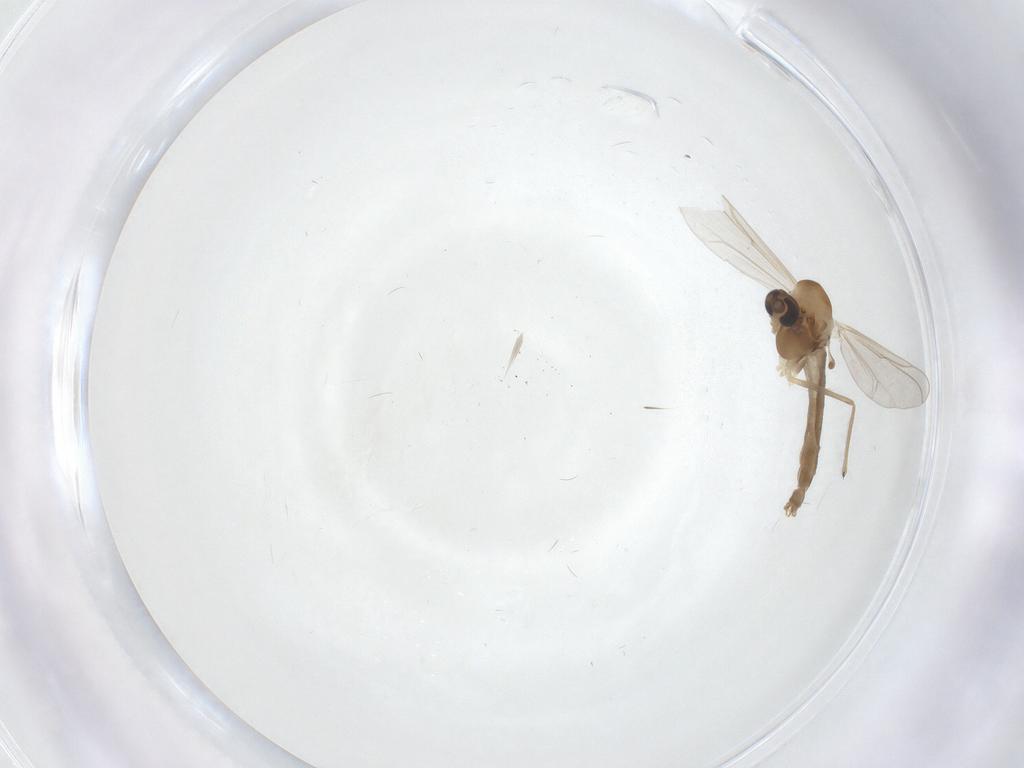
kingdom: Animalia
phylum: Arthropoda
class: Insecta
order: Diptera
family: Chironomidae
